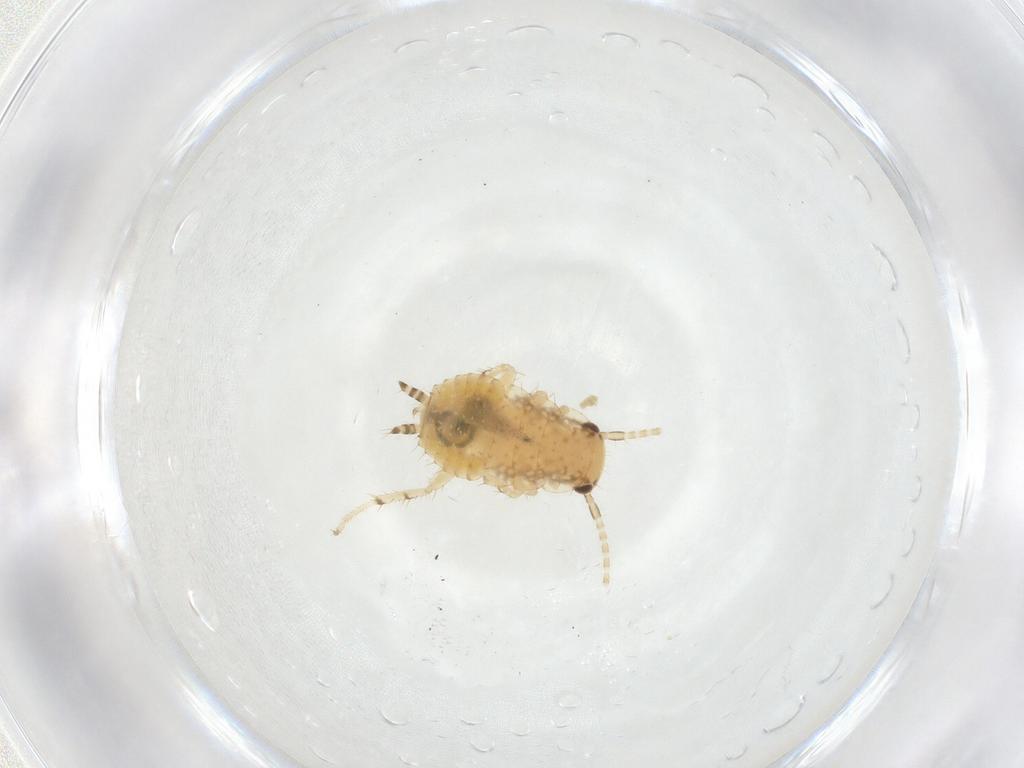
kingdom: Animalia
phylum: Arthropoda
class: Insecta
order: Blattodea
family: Ectobiidae
